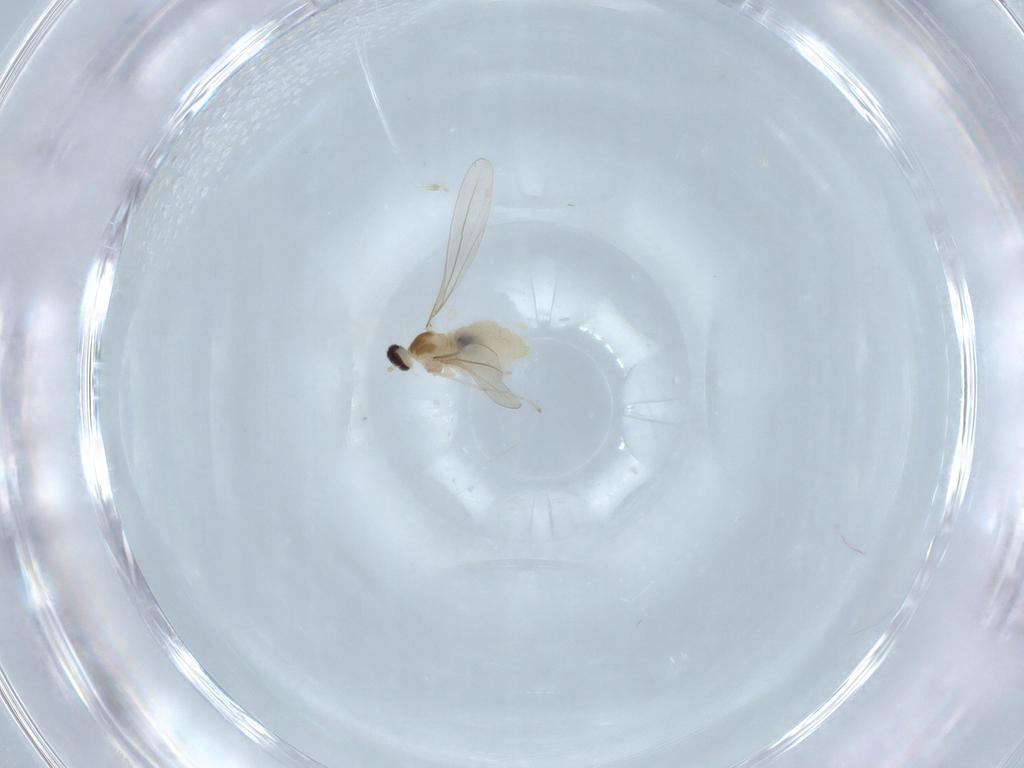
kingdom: Animalia
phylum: Arthropoda
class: Insecta
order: Diptera
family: Cecidomyiidae
